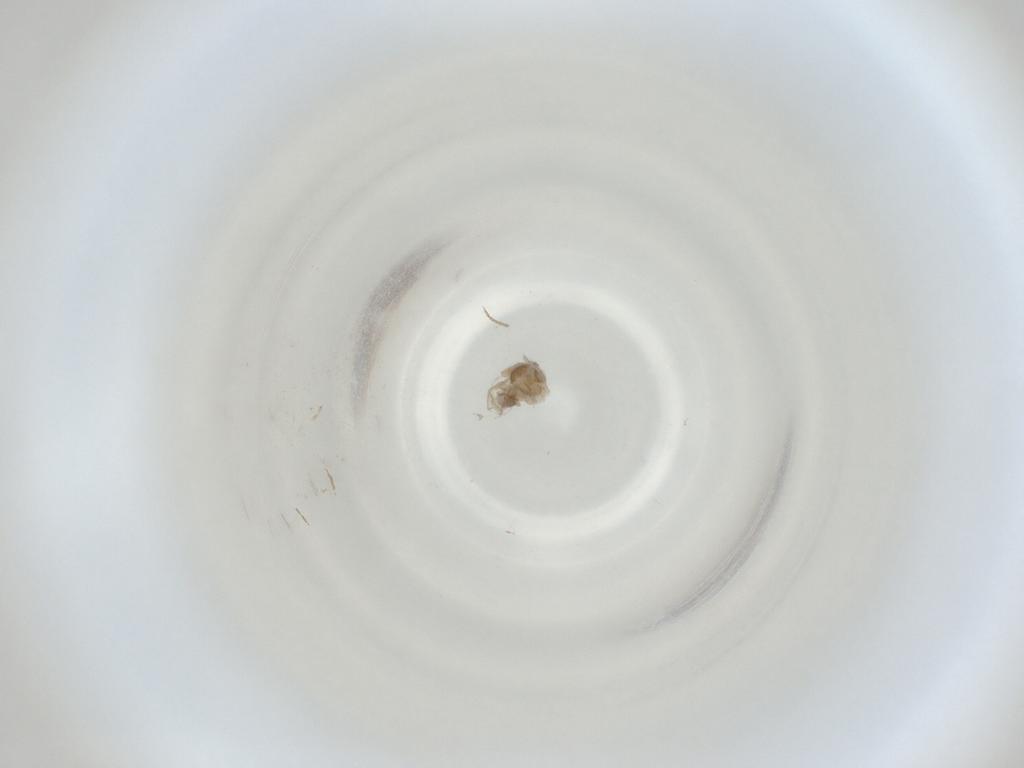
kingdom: Animalia
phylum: Arthropoda
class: Insecta
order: Diptera
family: Cecidomyiidae
